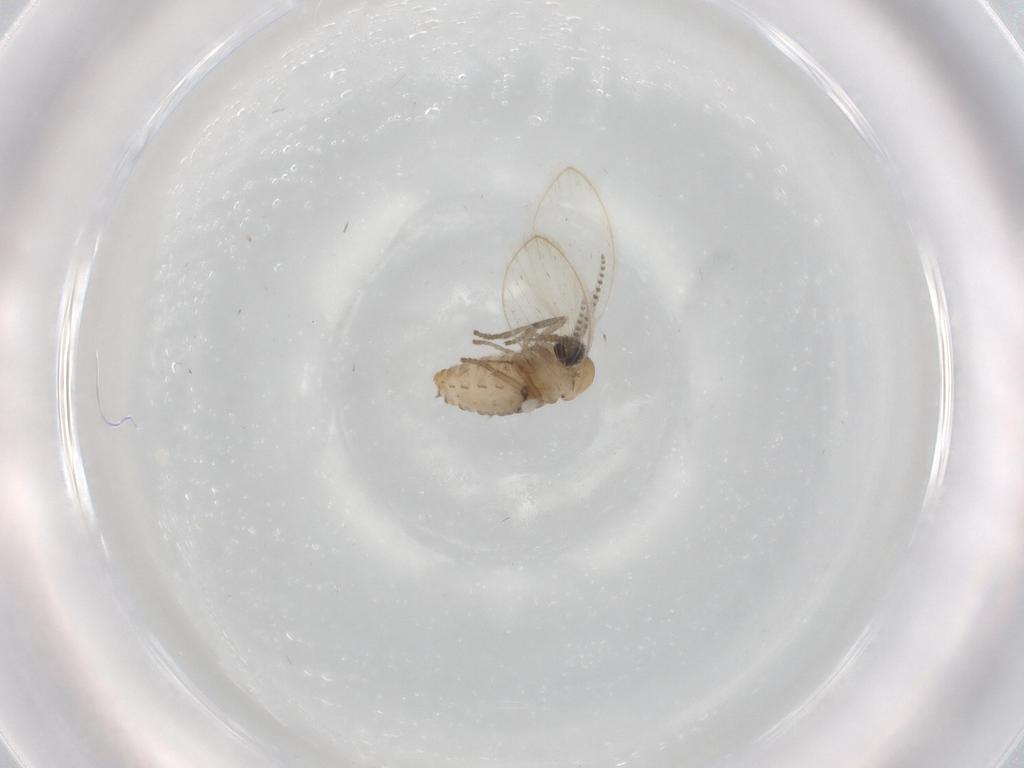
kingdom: Animalia
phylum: Arthropoda
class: Insecta
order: Diptera
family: Psychodidae
